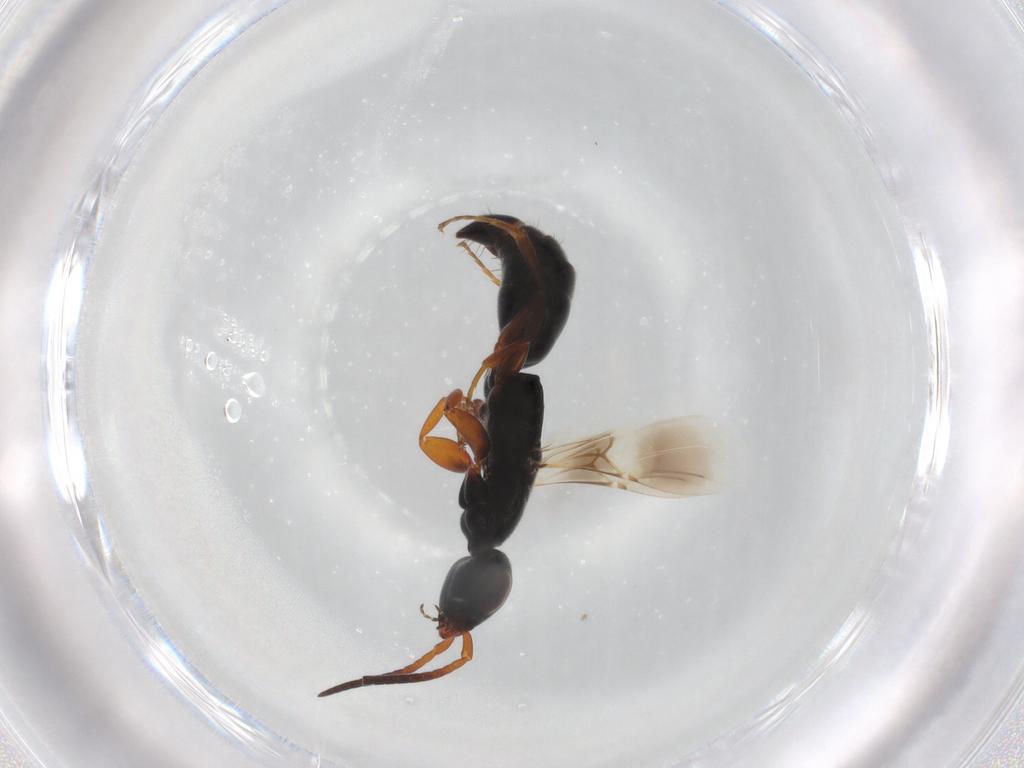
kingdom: Animalia
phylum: Arthropoda
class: Insecta
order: Hymenoptera
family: Bethylidae
